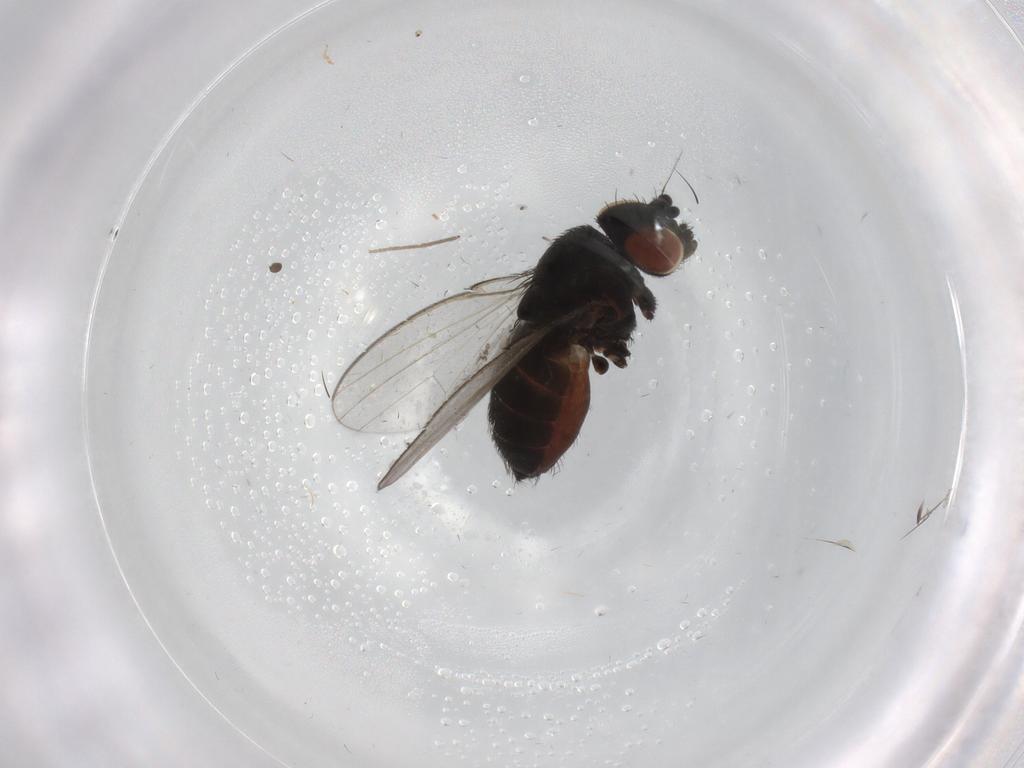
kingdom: Animalia
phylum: Arthropoda
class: Insecta
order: Diptera
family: Milichiidae
